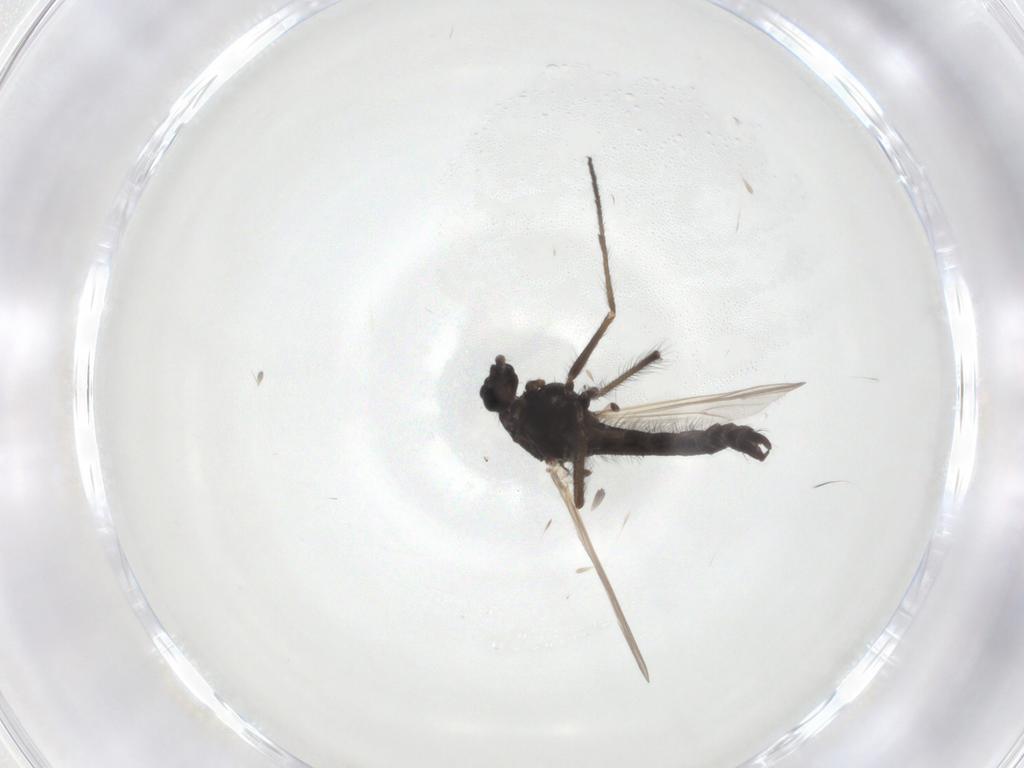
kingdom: Animalia
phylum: Arthropoda
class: Insecta
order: Diptera
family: Chironomidae
